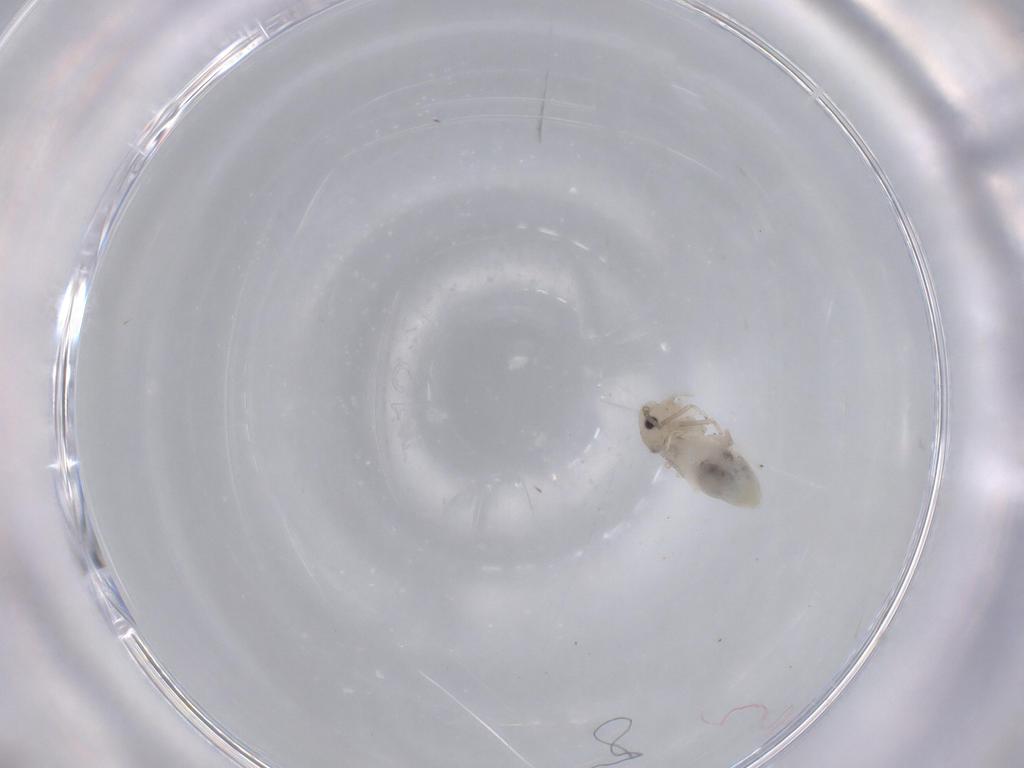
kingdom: Animalia
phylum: Arthropoda
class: Insecta
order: Psocodea
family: Caeciliusidae
